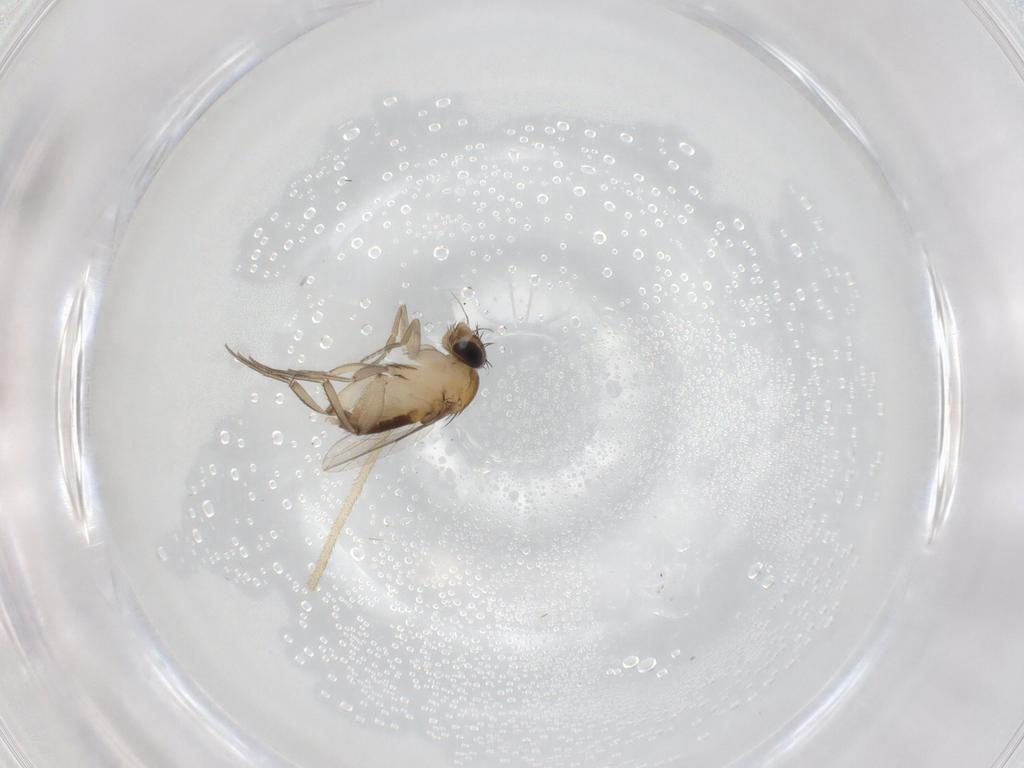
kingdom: Animalia
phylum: Arthropoda
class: Insecta
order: Diptera
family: Phoridae
